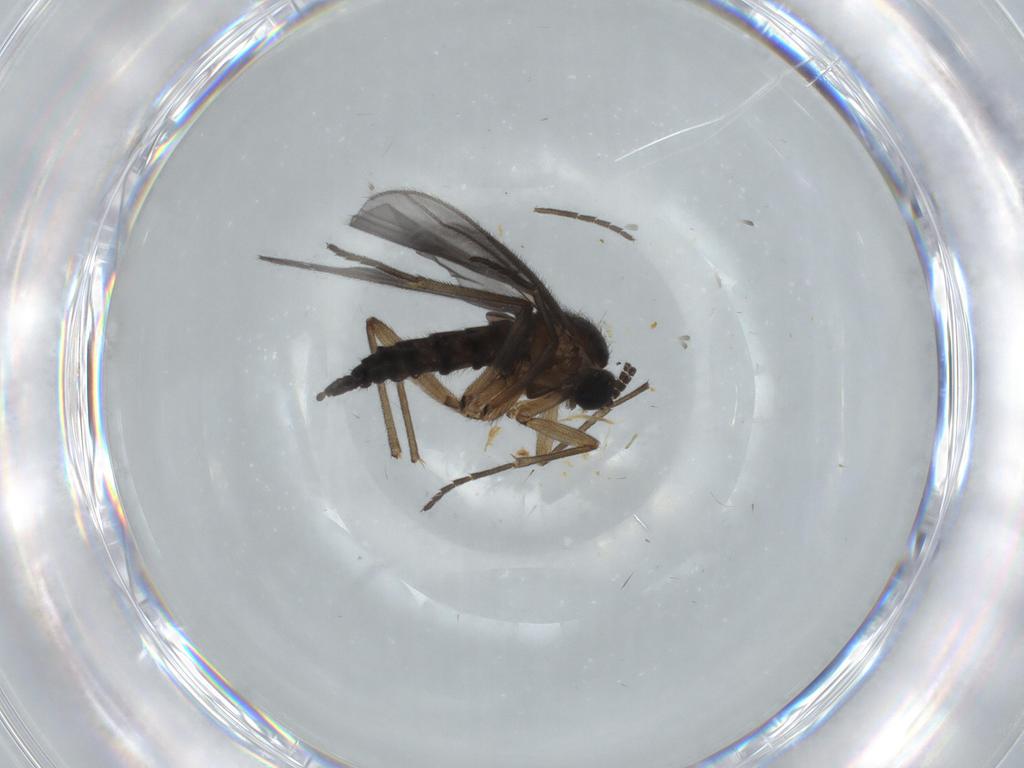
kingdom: Animalia
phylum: Arthropoda
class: Insecta
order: Diptera
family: Sciaridae
